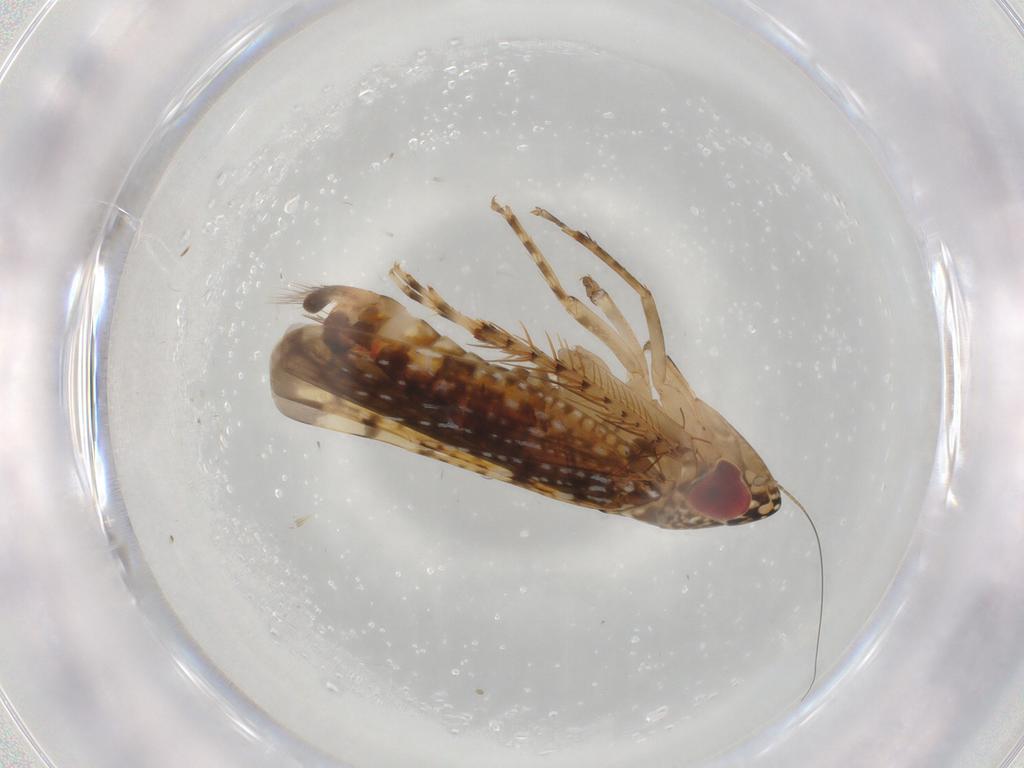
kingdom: Animalia
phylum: Arthropoda
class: Insecta
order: Hemiptera
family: Cicadellidae
